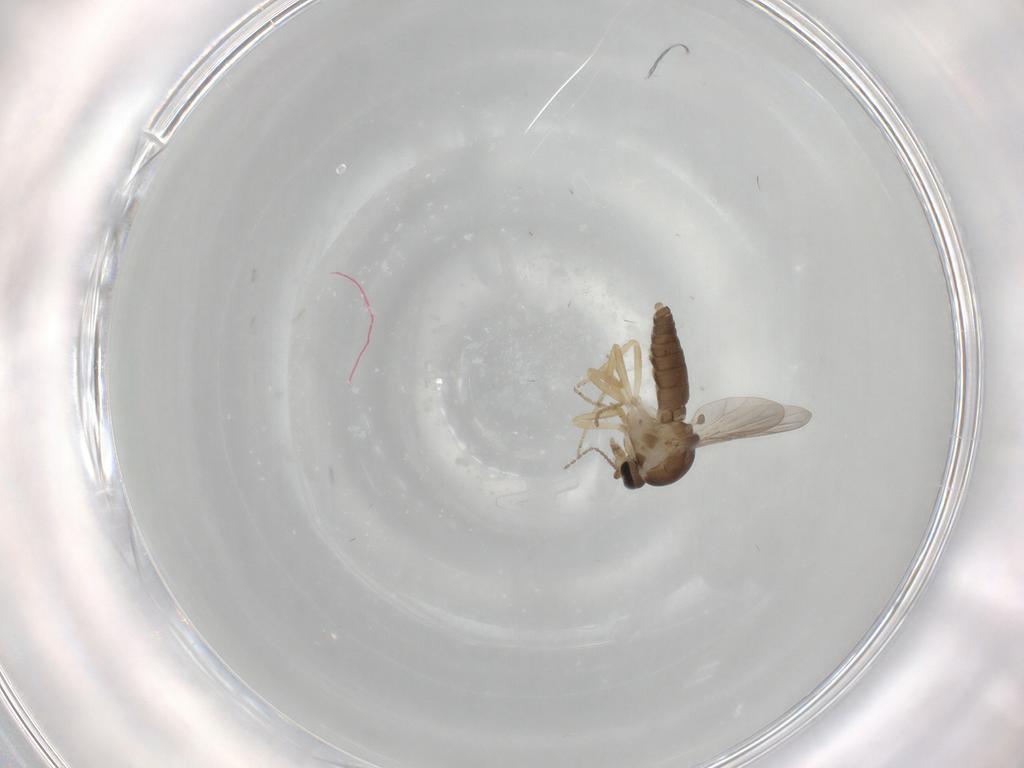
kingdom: Animalia
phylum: Arthropoda
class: Insecta
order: Diptera
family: Ceratopogonidae
